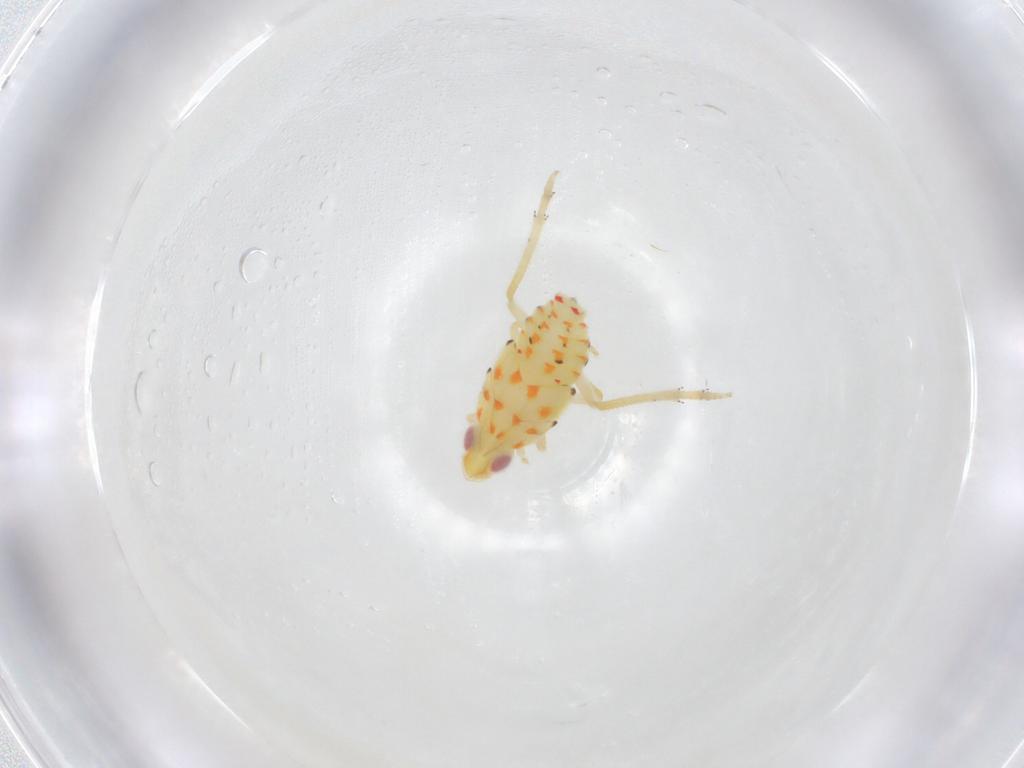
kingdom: Animalia
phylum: Arthropoda
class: Insecta
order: Hemiptera
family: Tropiduchidae
